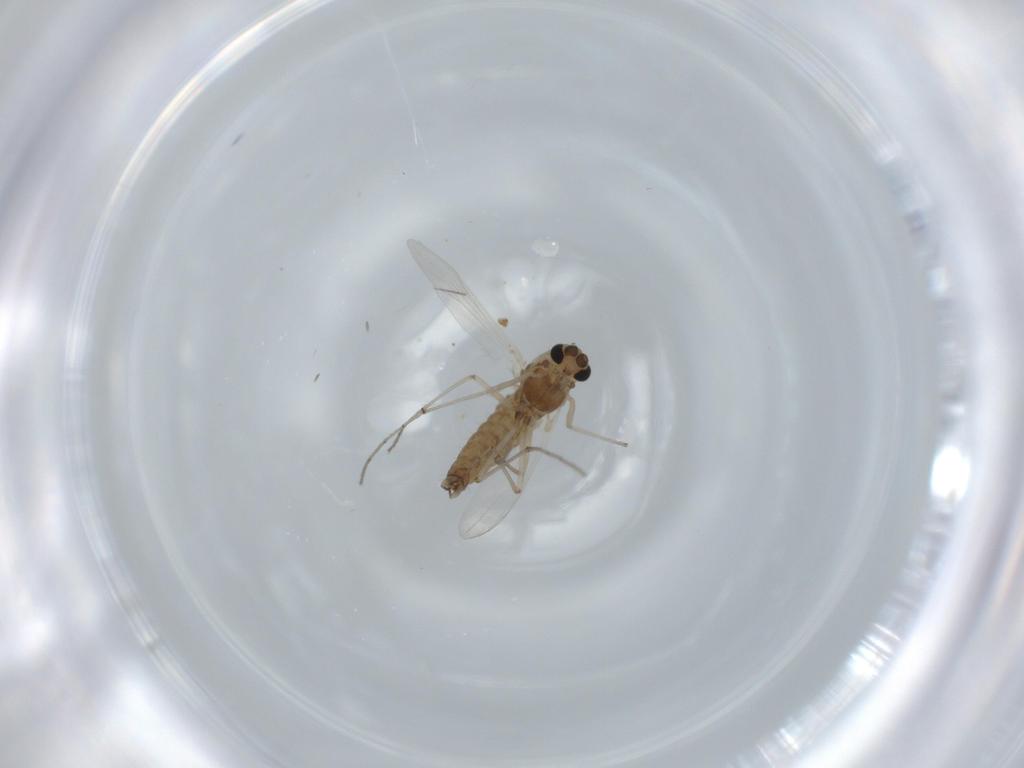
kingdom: Animalia
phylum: Arthropoda
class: Insecta
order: Diptera
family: Chironomidae
